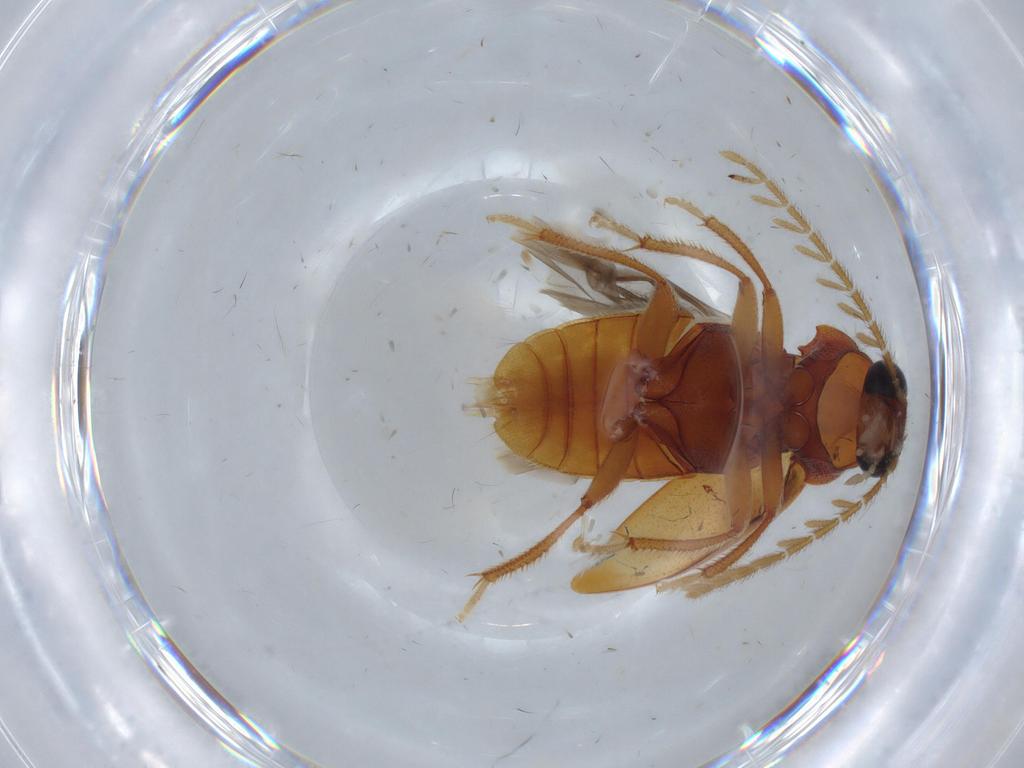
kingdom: Animalia
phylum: Arthropoda
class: Insecta
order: Coleoptera
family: Ptilodactylidae
